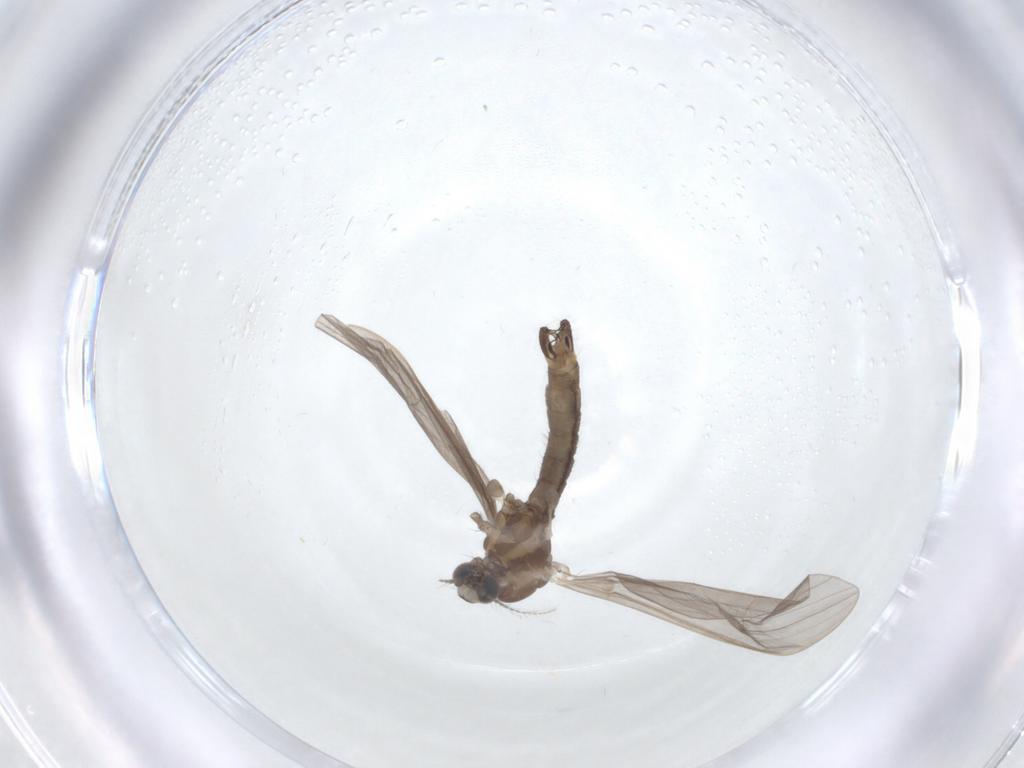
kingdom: Animalia
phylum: Arthropoda
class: Insecta
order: Diptera
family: Limoniidae
